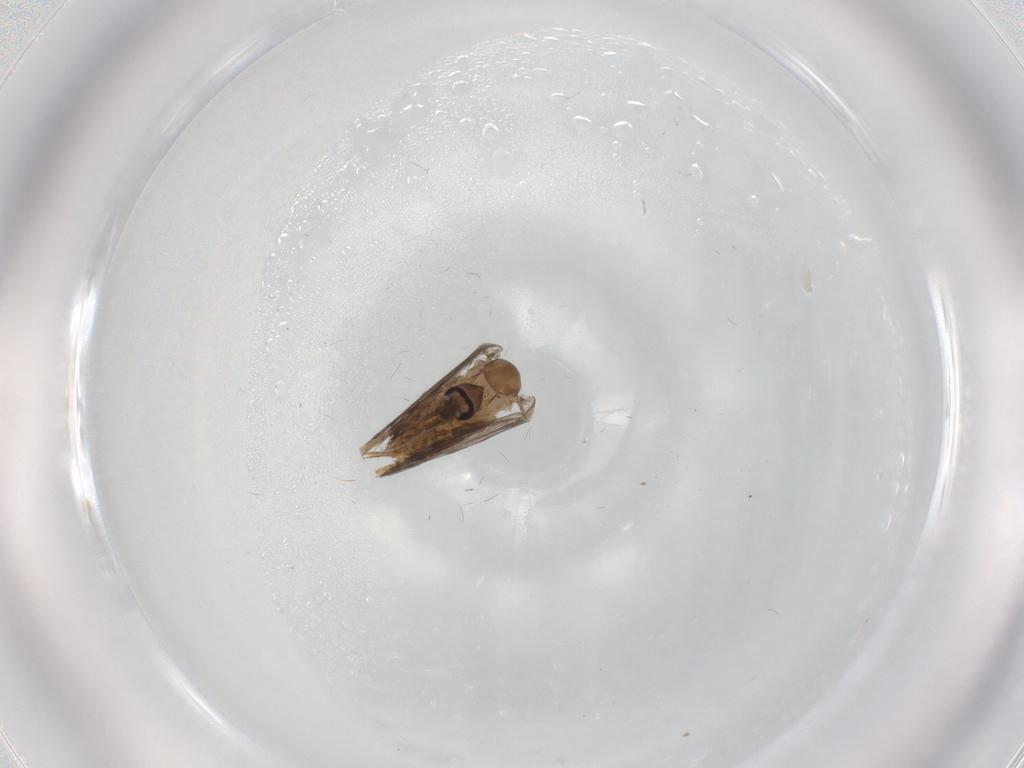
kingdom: Animalia
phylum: Arthropoda
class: Insecta
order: Diptera
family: Psychodidae
